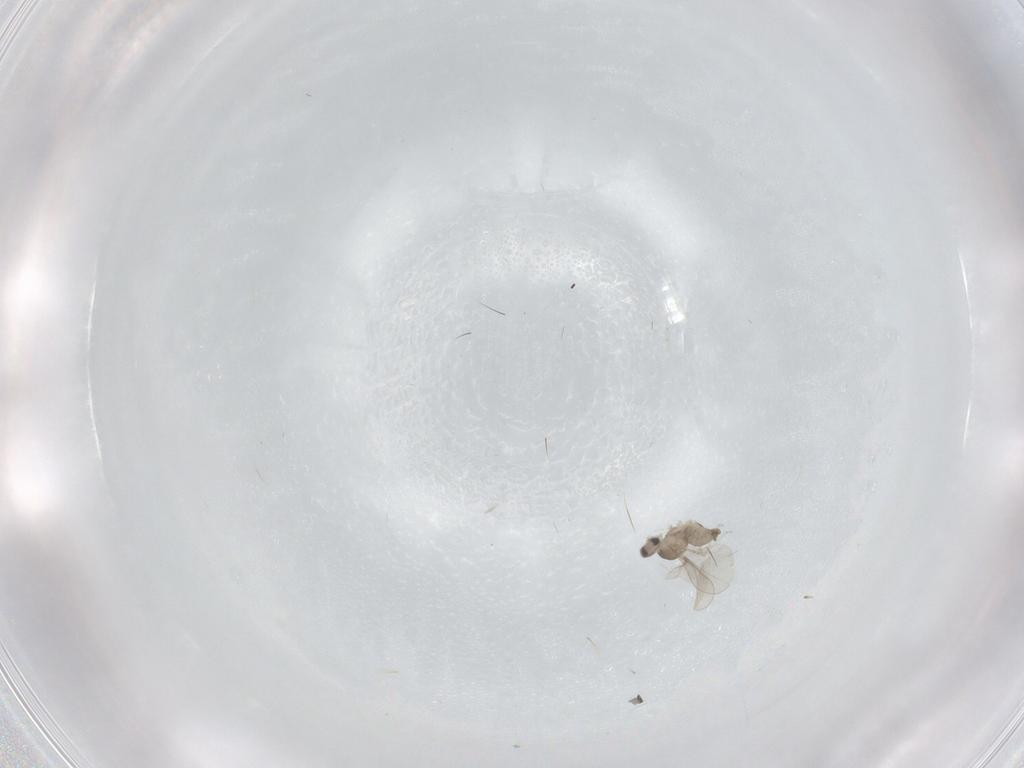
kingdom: Animalia
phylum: Arthropoda
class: Insecta
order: Diptera
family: Cecidomyiidae
